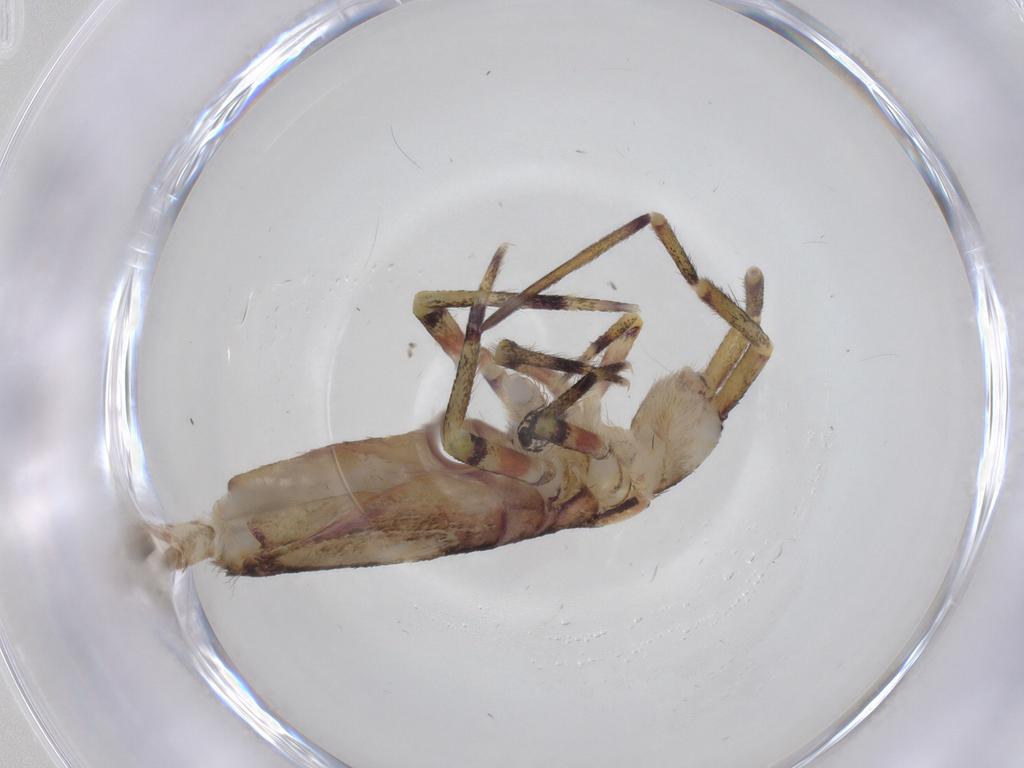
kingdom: Animalia
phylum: Arthropoda
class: Collembola
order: Entomobryomorpha
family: Entomobryidae
